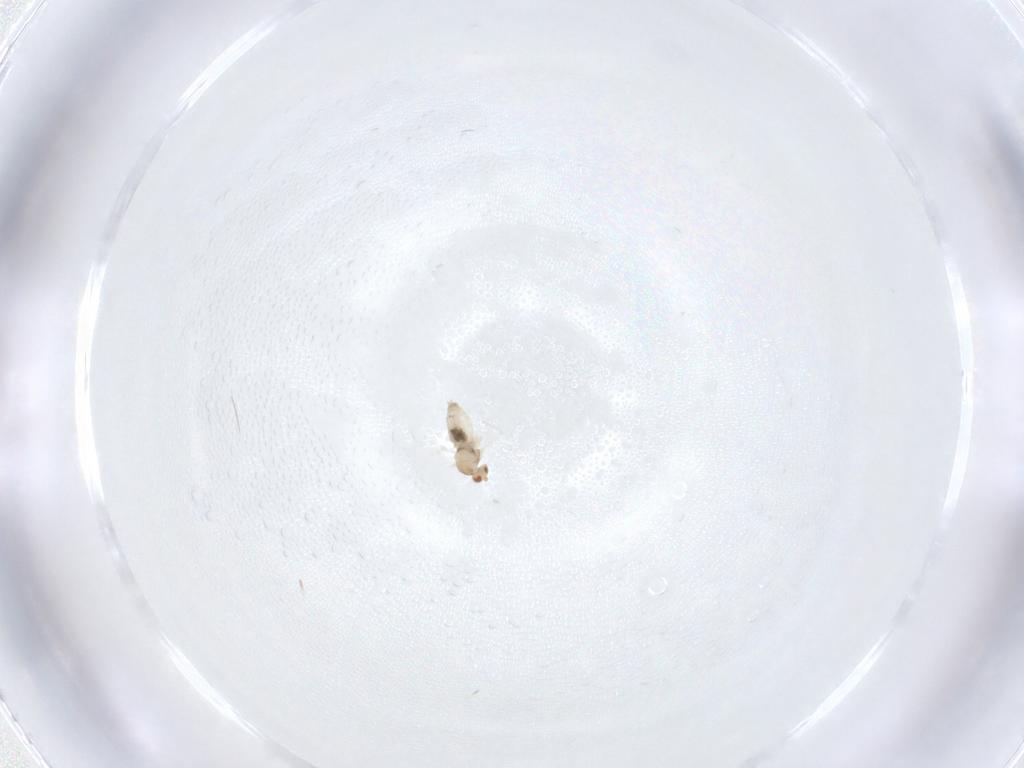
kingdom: Animalia
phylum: Arthropoda
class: Insecta
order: Diptera
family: Cecidomyiidae
